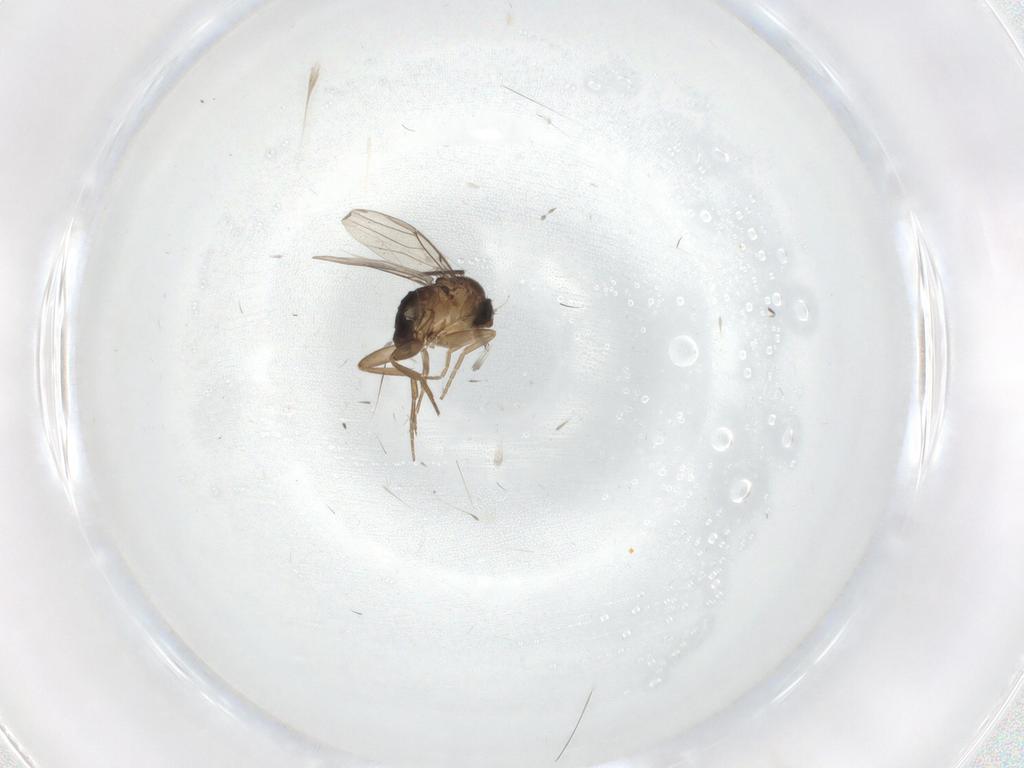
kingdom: Animalia
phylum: Arthropoda
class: Insecta
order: Diptera
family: Phoridae
